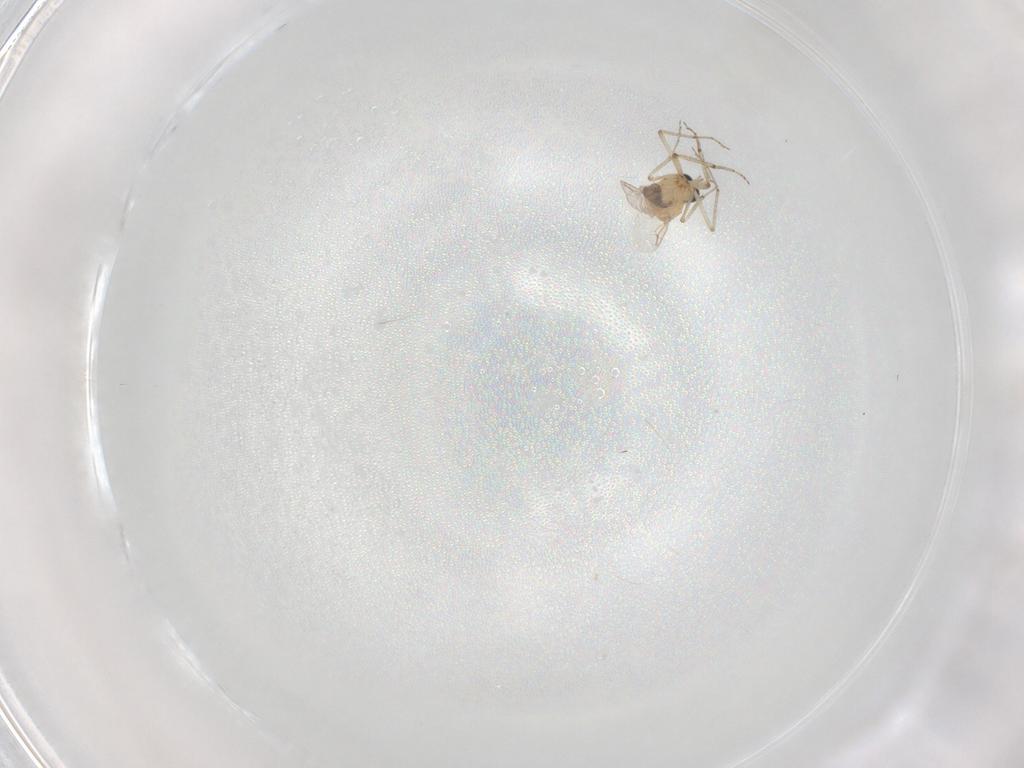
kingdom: Animalia
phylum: Arthropoda
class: Insecta
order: Diptera
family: Ceratopogonidae
